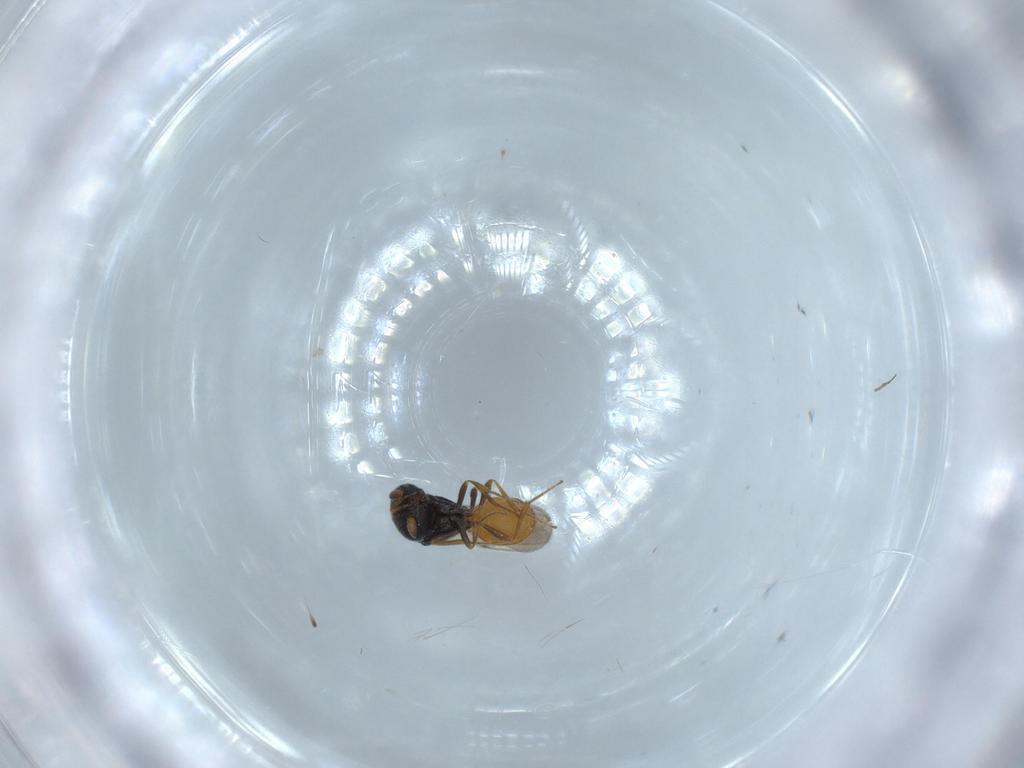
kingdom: Animalia
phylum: Arthropoda
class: Insecta
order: Hymenoptera
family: Scelionidae
